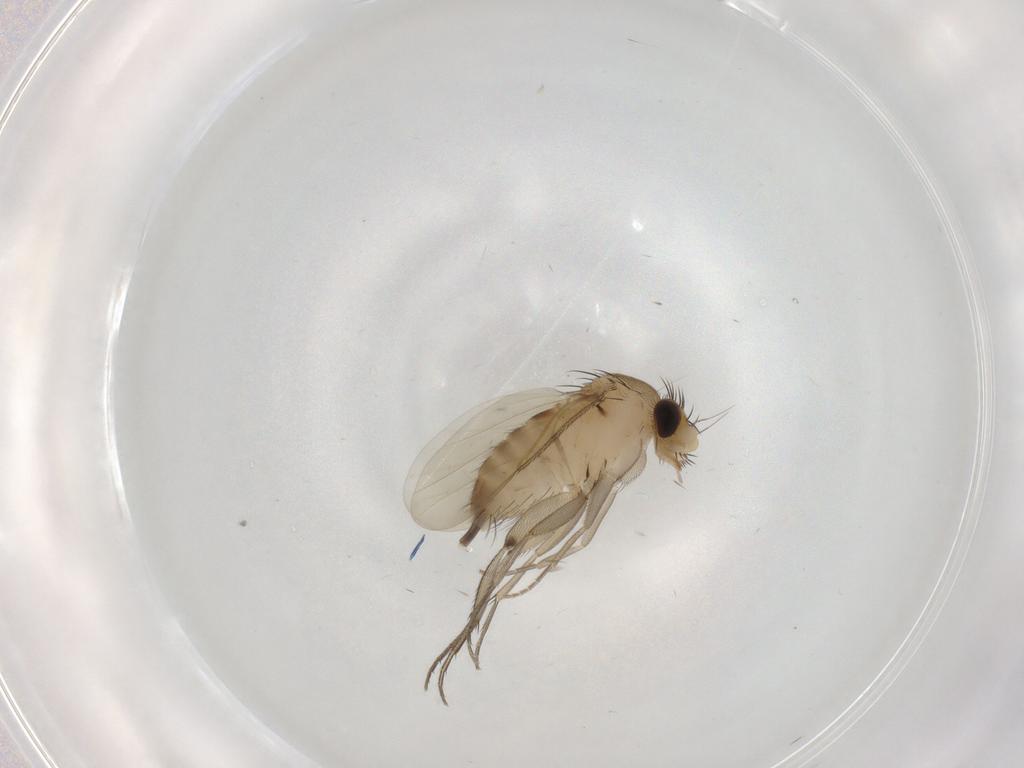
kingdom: Animalia
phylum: Arthropoda
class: Insecta
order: Diptera
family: Phoridae
